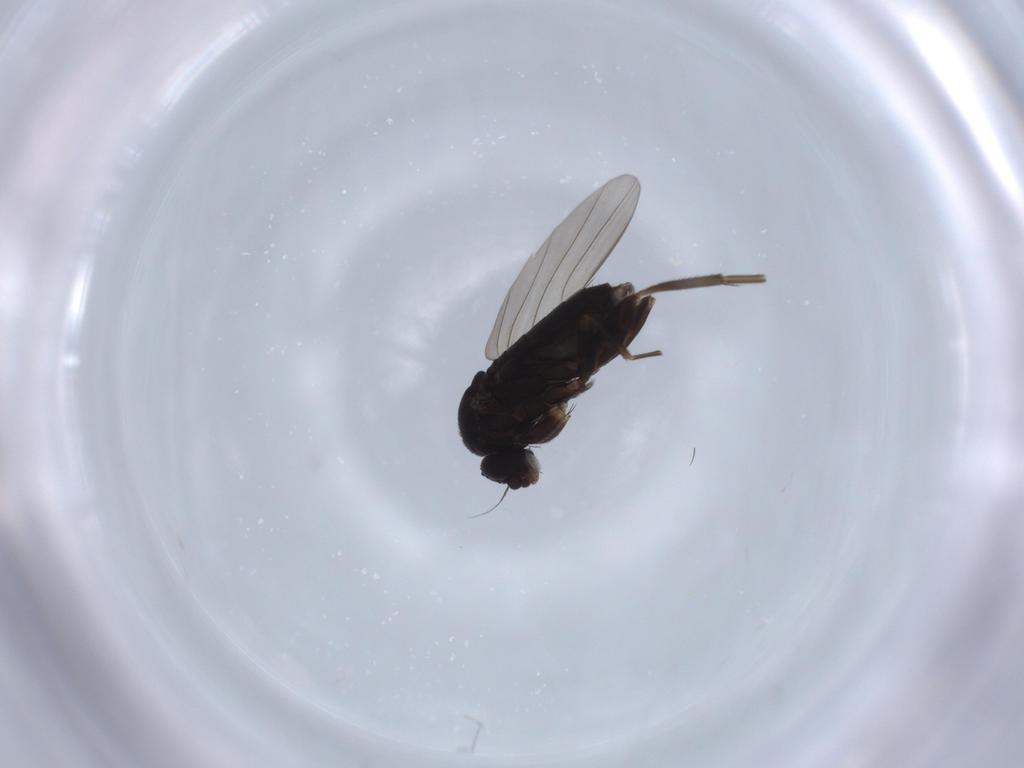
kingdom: Animalia
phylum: Arthropoda
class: Insecta
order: Diptera
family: Phoridae
